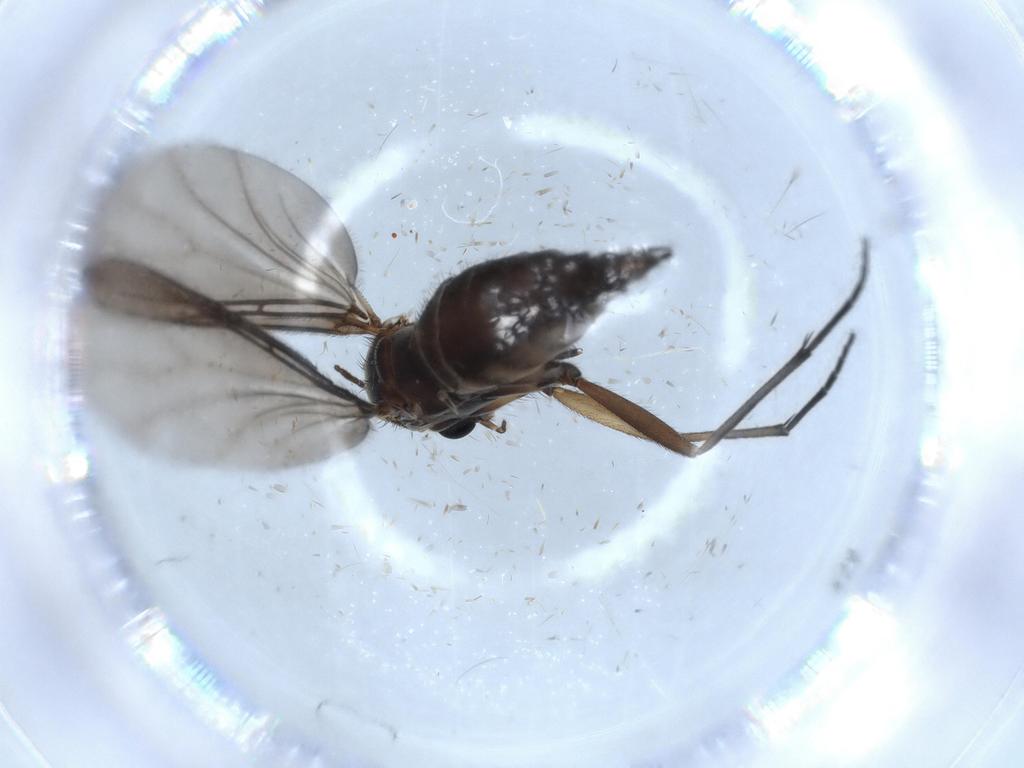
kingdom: Animalia
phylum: Arthropoda
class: Insecta
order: Diptera
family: Sciaridae
